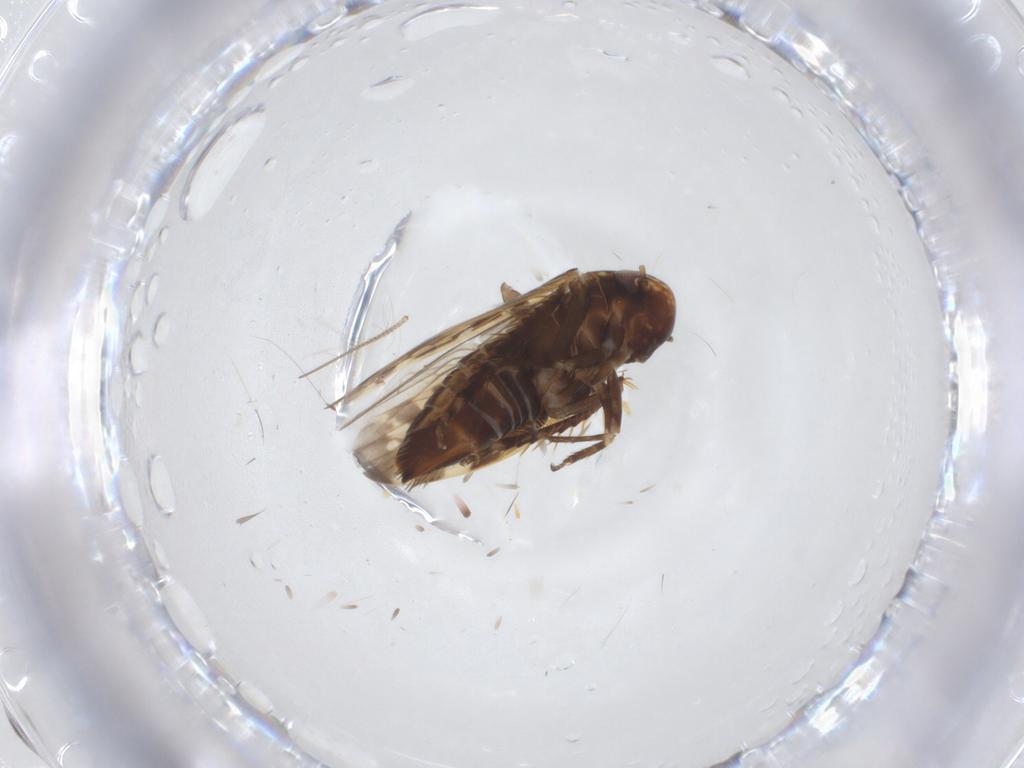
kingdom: Animalia
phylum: Arthropoda
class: Insecta
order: Hemiptera
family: Cicadellidae
